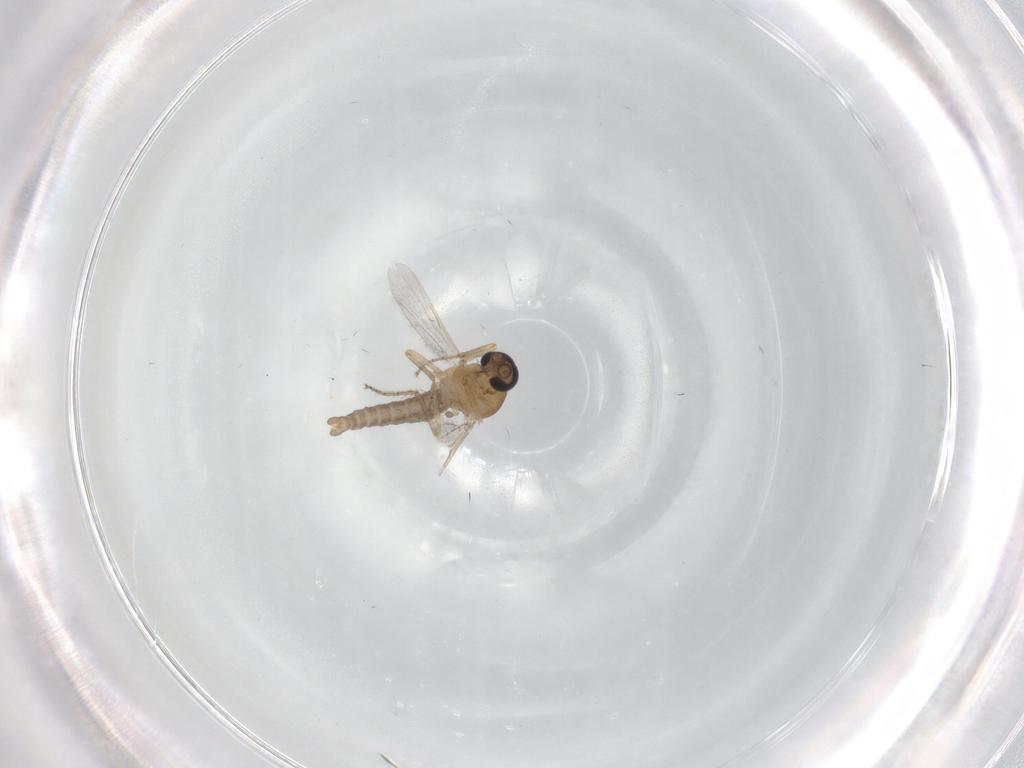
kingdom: Animalia
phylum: Arthropoda
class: Insecta
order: Diptera
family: Ceratopogonidae
